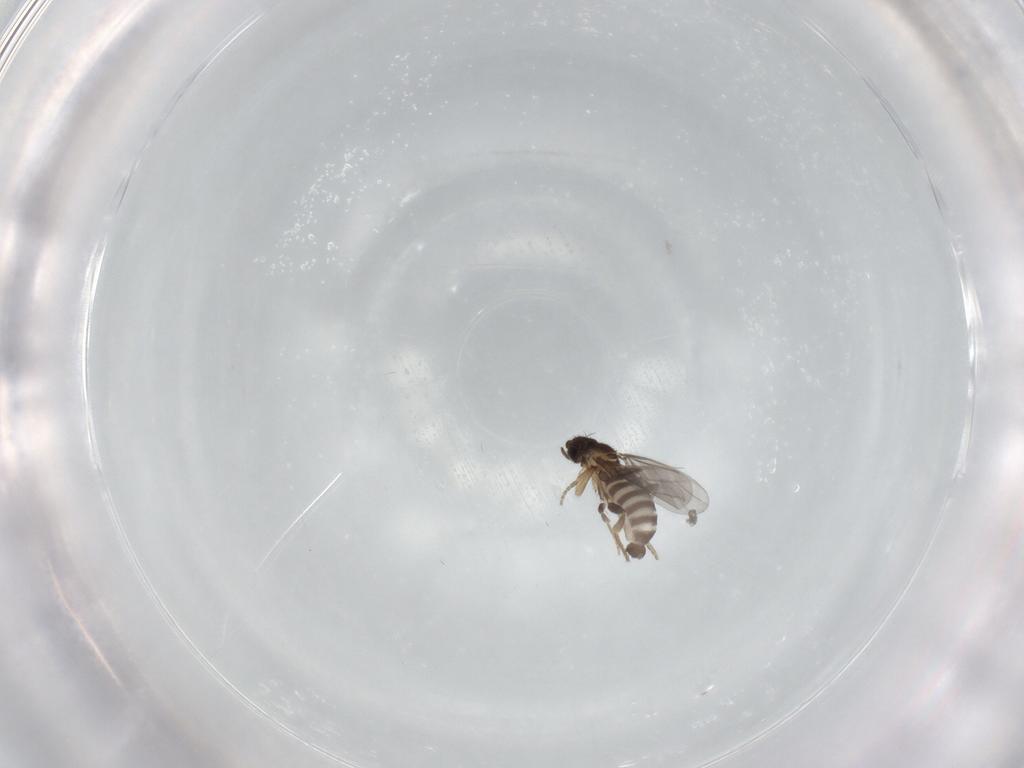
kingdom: Animalia
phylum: Arthropoda
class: Insecta
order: Diptera
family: Phoridae
